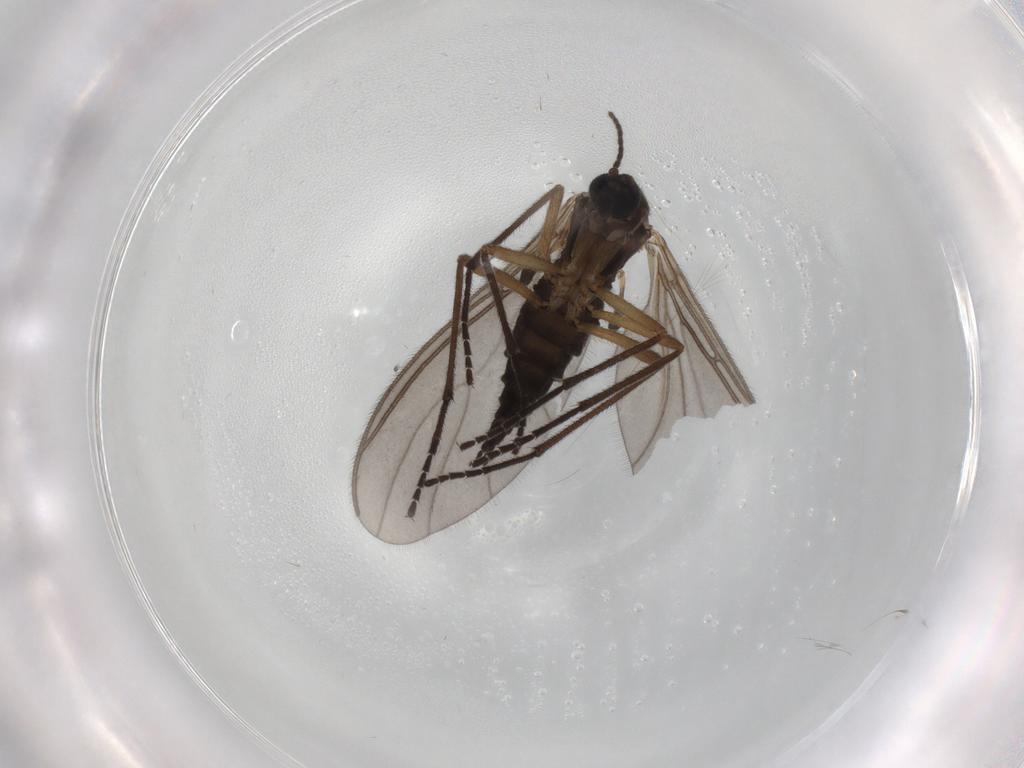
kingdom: Animalia
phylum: Arthropoda
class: Insecta
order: Diptera
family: Sciaridae
